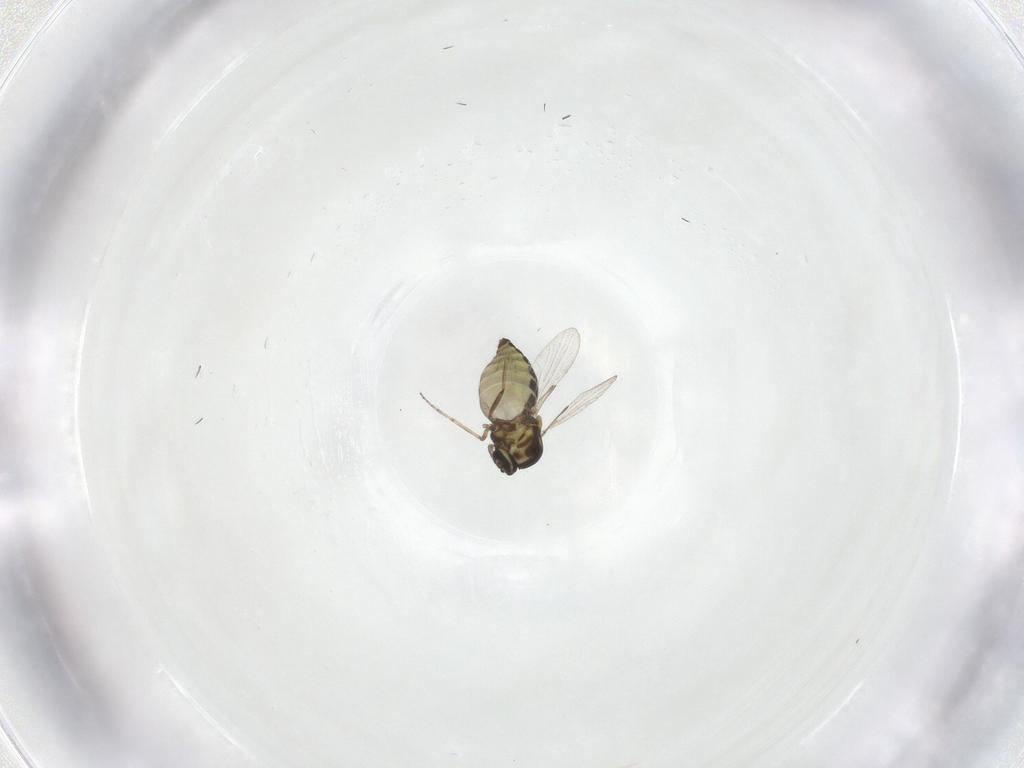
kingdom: Animalia
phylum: Arthropoda
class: Insecta
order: Diptera
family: Ceratopogonidae
